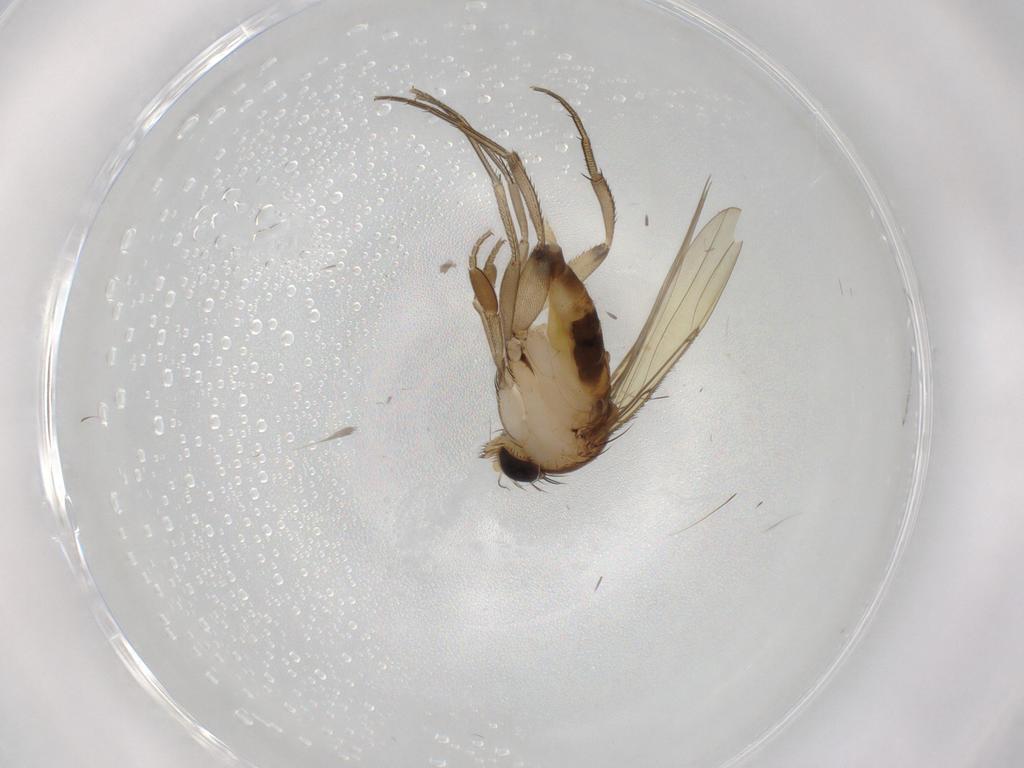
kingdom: Animalia
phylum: Arthropoda
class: Insecta
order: Diptera
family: Phoridae
